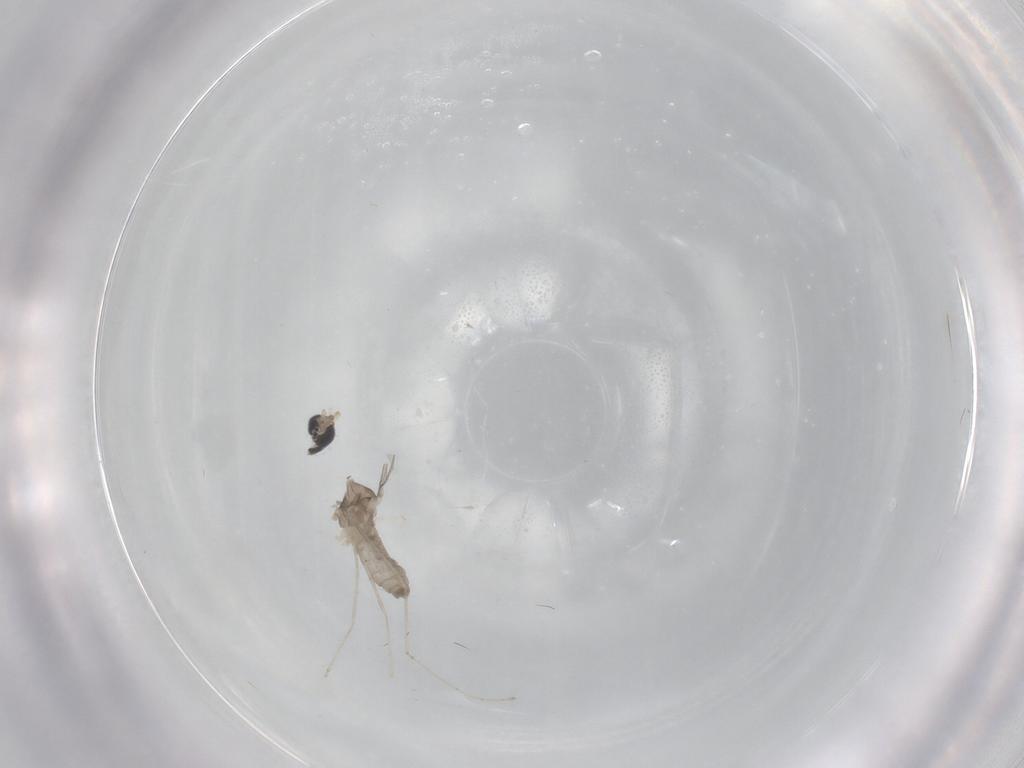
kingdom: Animalia
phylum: Arthropoda
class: Insecta
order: Diptera
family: Cecidomyiidae
